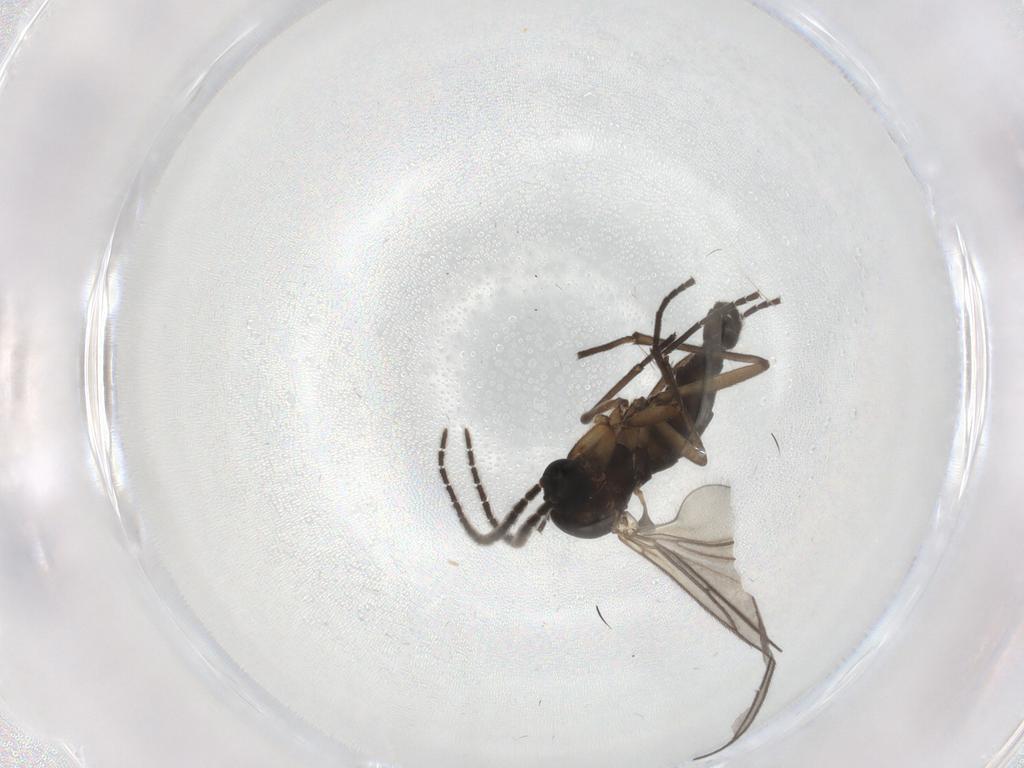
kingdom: Animalia
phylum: Arthropoda
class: Insecta
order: Diptera
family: Sciaridae
